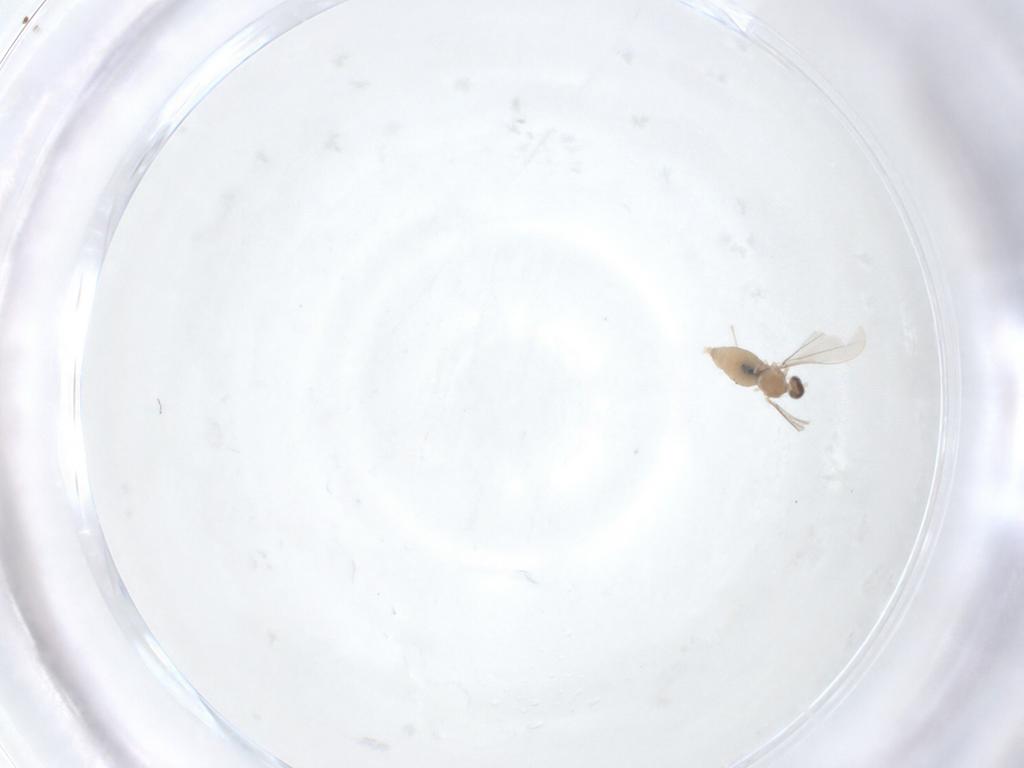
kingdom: Animalia
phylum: Arthropoda
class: Insecta
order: Diptera
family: Cecidomyiidae
